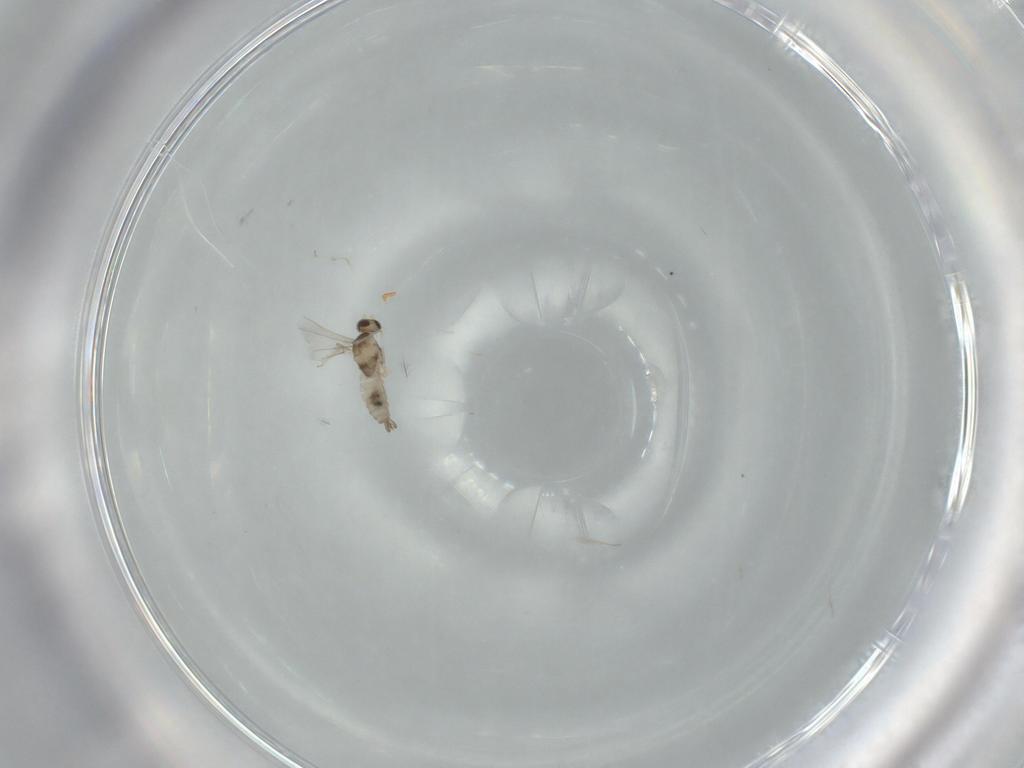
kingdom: Animalia
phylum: Arthropoda
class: Insecta
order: Diptera
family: Cecidomyiidae
